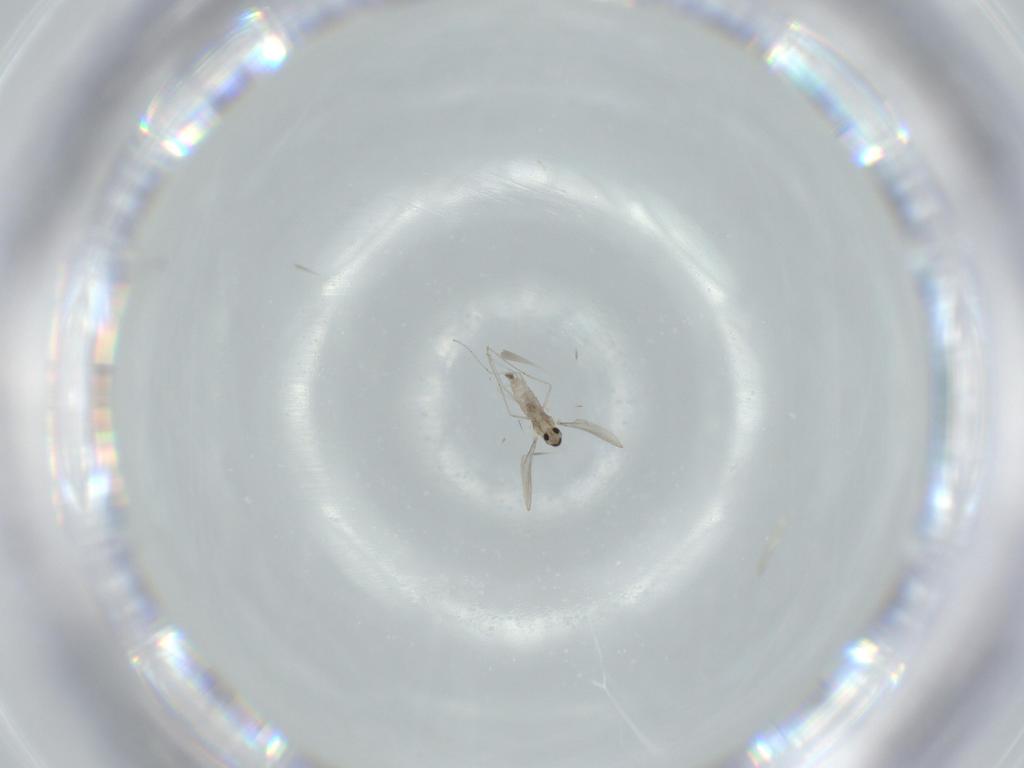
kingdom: Animalia
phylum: Arthropoda
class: Insecta
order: Diptera
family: Cecidomyiidae
